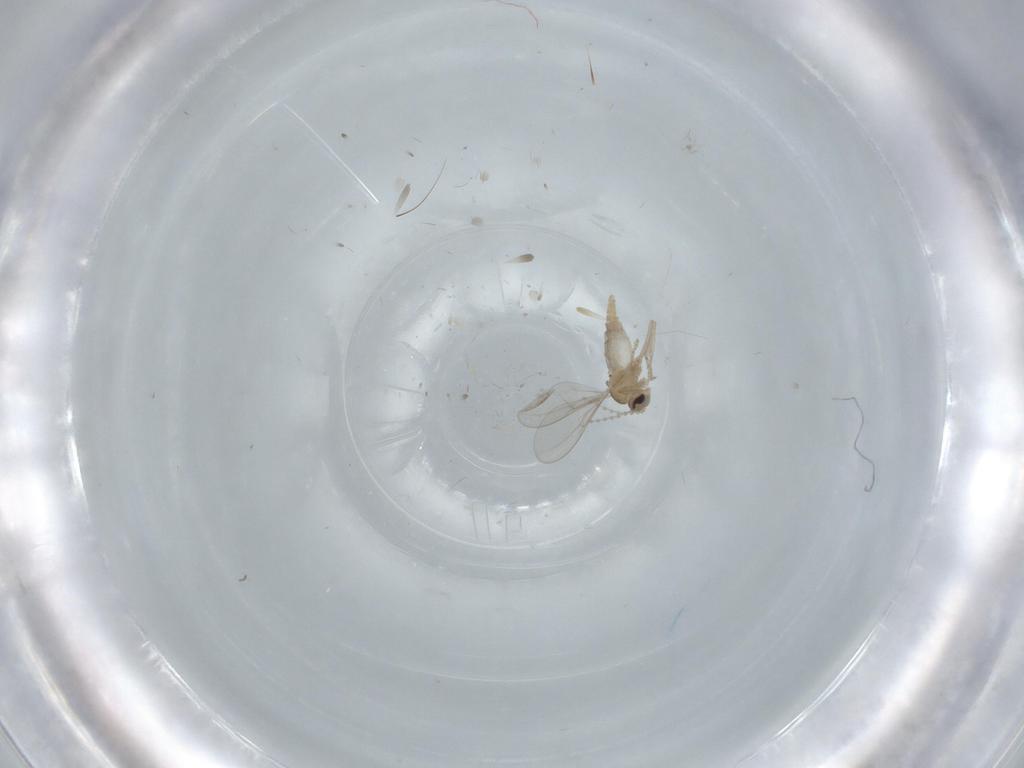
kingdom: Animalia
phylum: Arthropoda
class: Insecta
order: Diptera
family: Cecidomyiidae
